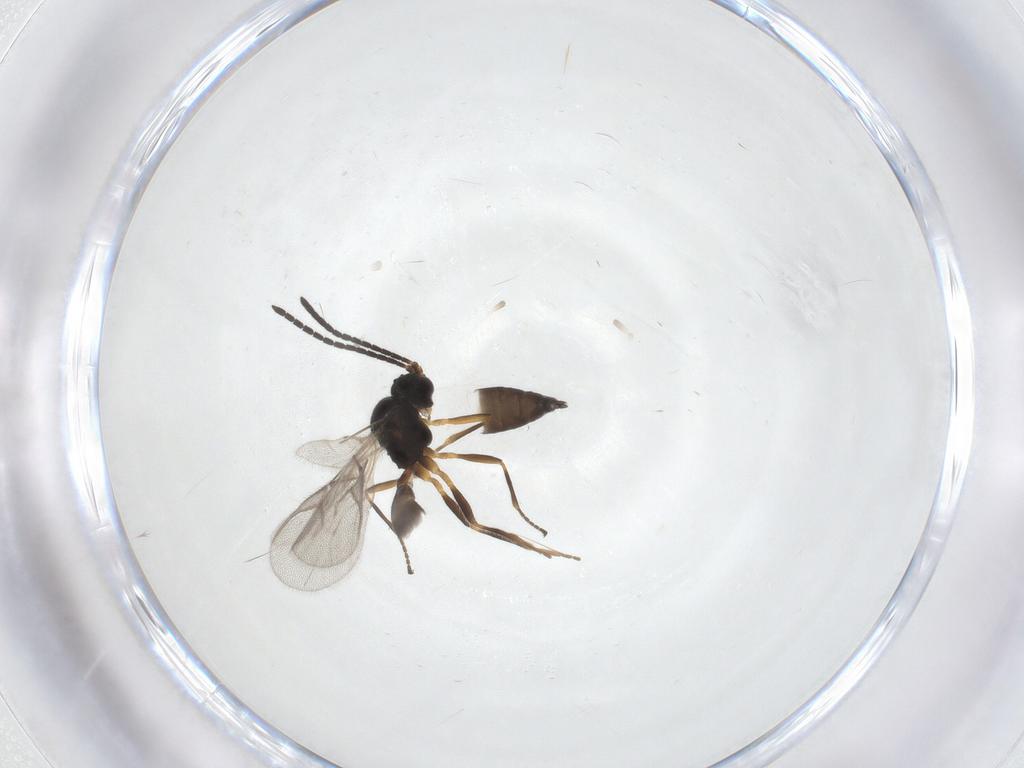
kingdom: Animalia
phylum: Arthropoda
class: Insecta
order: Hymenoptera
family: Braconidae
